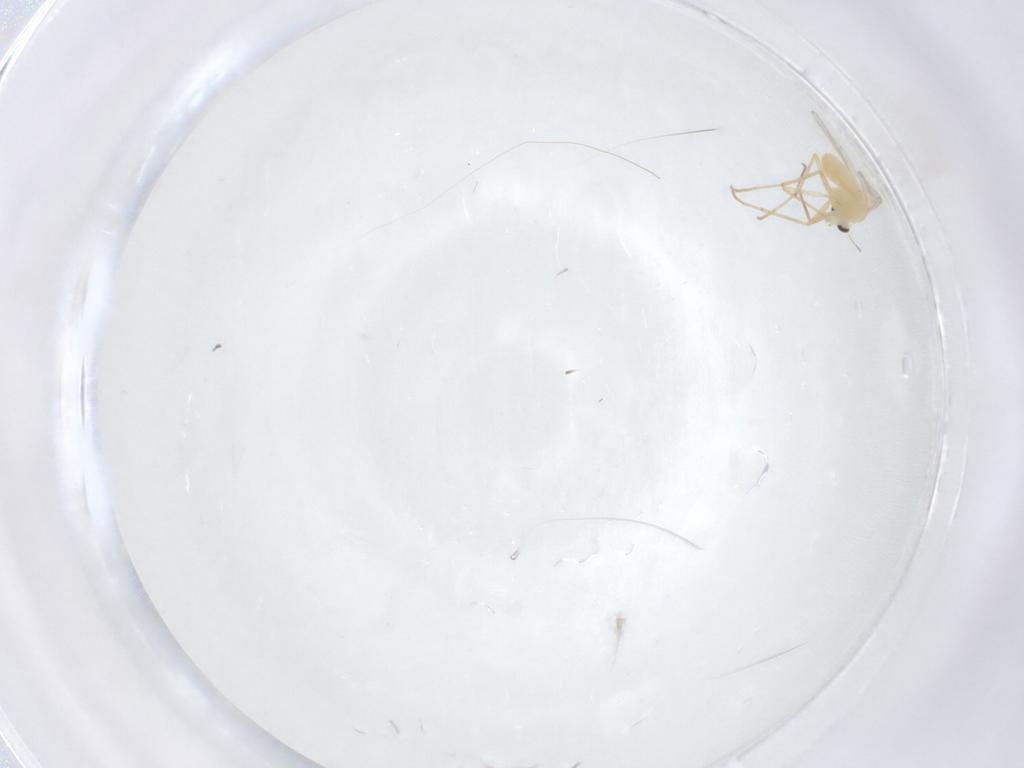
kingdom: Animalia
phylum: Arthropoda
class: Insecta
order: Diptera
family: Chironomidae
